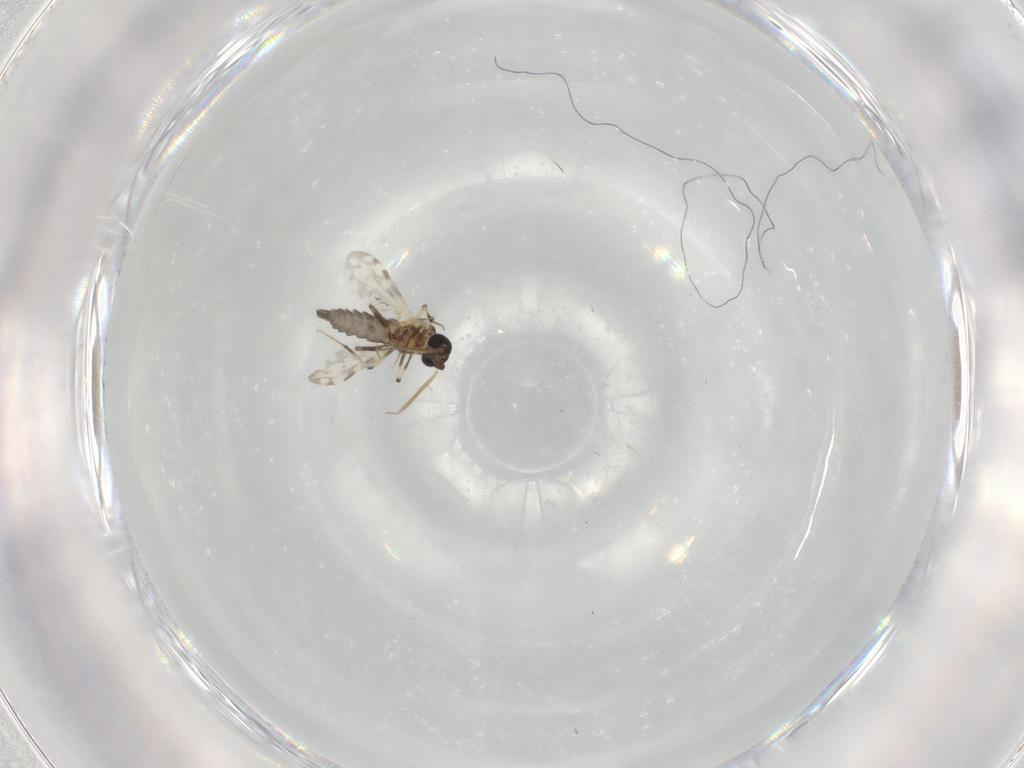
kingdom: Animalia
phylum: Arthropoda
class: Insecta
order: Diptera
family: Ceratopogonidae
